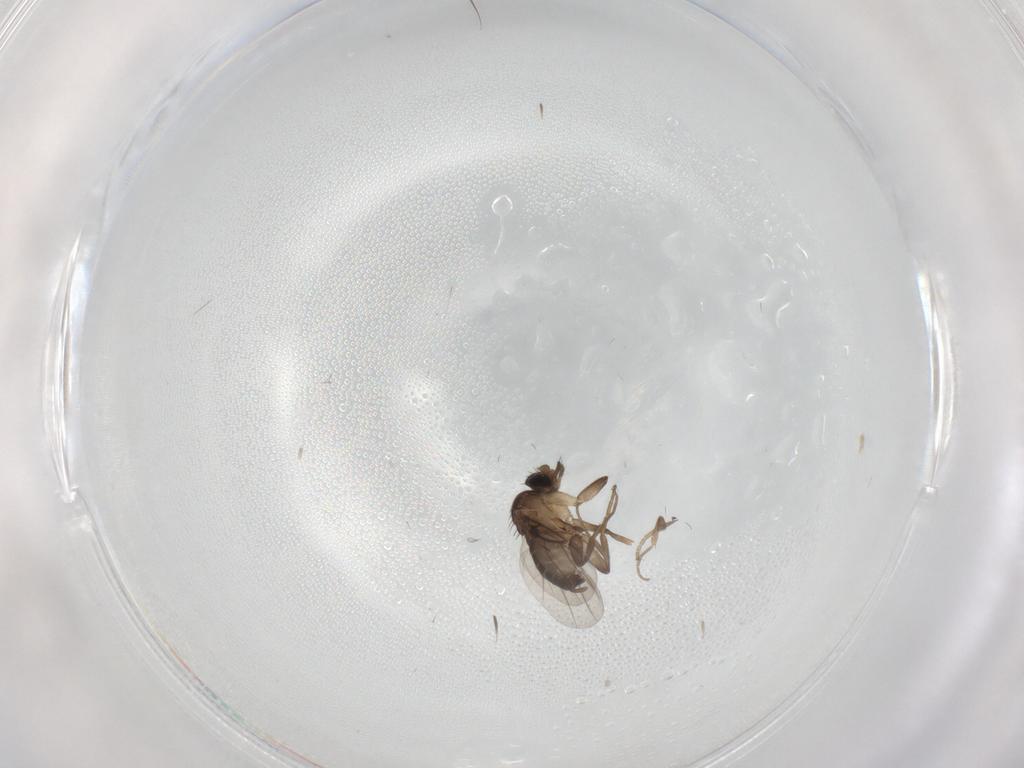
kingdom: Animalia
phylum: Arthropoda
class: Insecta
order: Diptera
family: Phoridae
